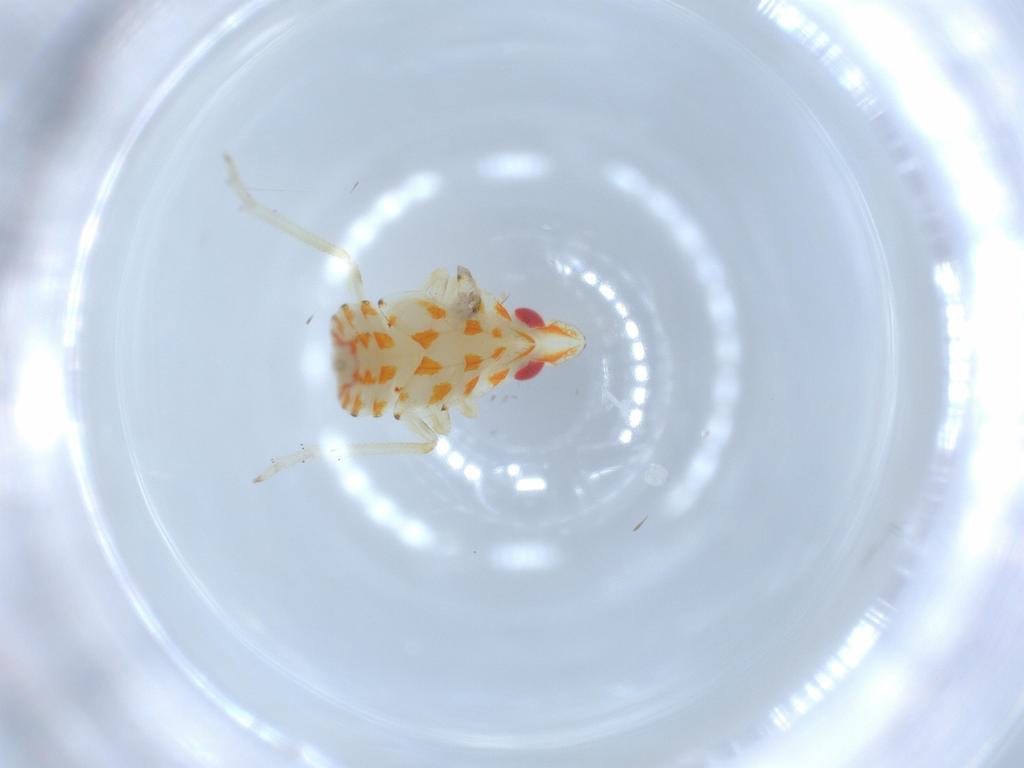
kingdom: Animalia
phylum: Arthropoda
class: Insecta
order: Hemiptera
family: Tropiduchidae
